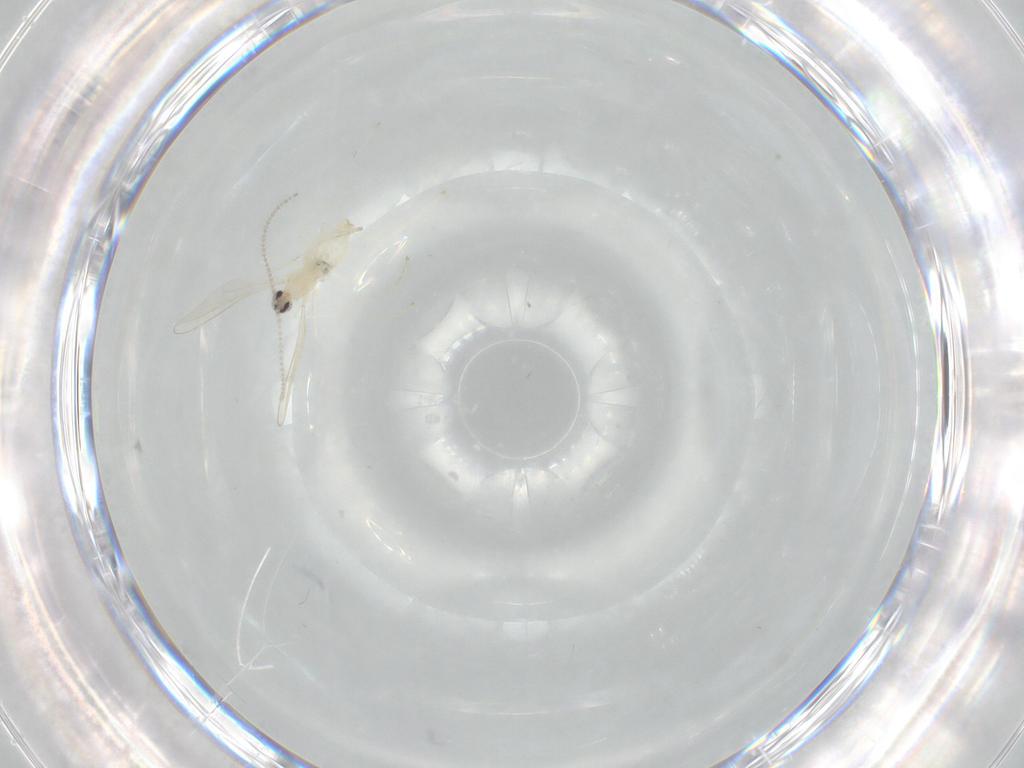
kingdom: Animalia
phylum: Arthropoda
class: Insecta
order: Diptera
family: Cecidomyiidae
